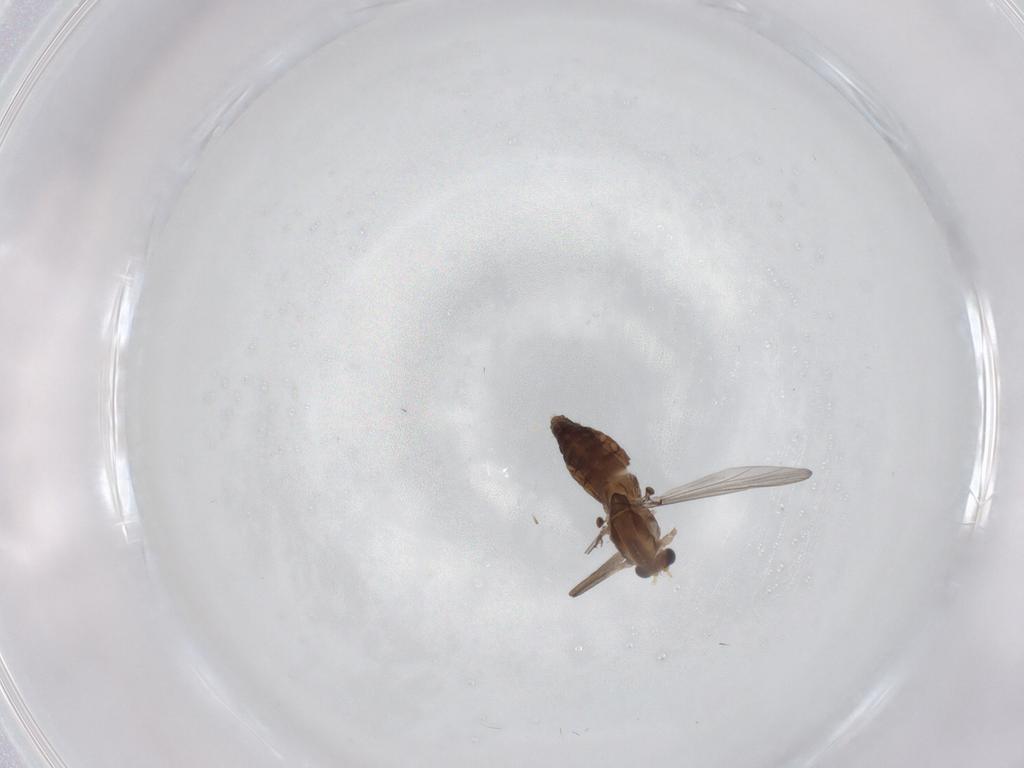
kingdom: Animalia
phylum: Arthropoda
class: Insecta
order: Diptera
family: Chironomidae
